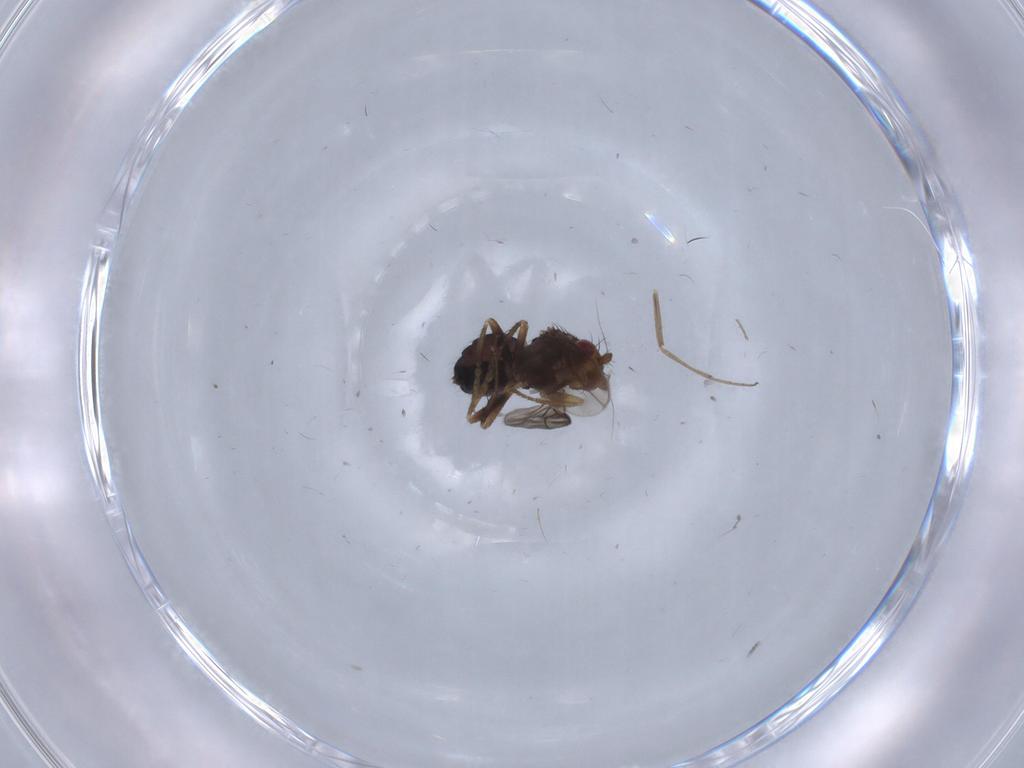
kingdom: Animalia
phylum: Arthropoda
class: Insecta
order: Diptera
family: Sphaeroceridae
